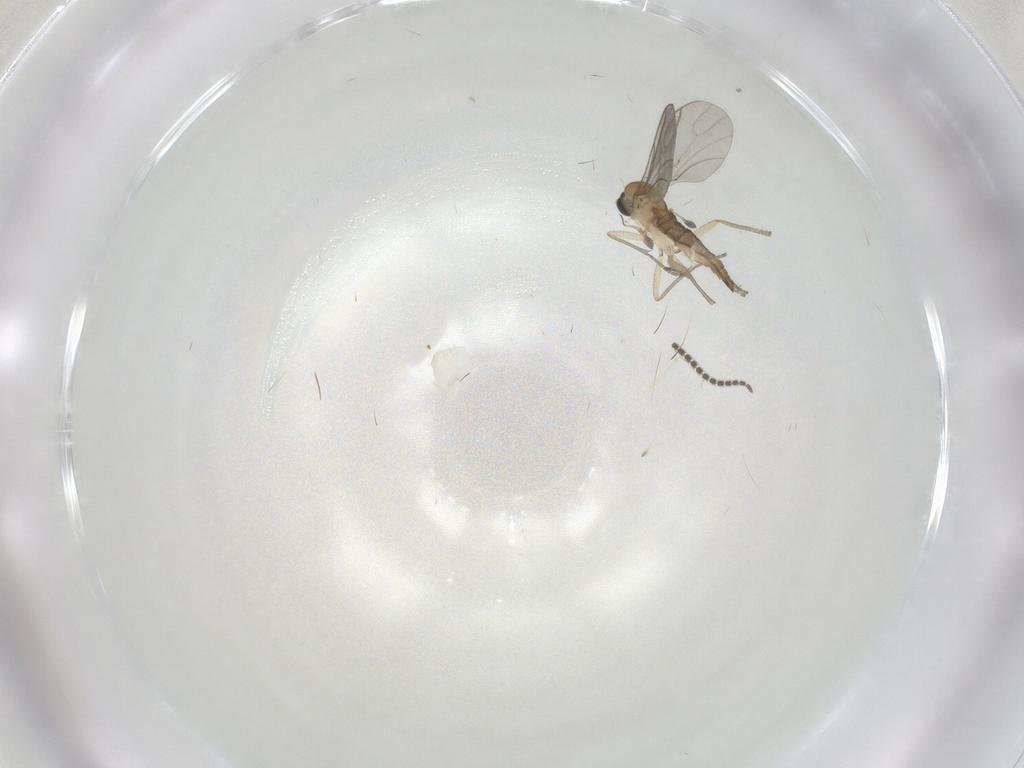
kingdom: Animalia
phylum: Arthropoda
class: Insecta
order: Diptera
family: Sciaridae
